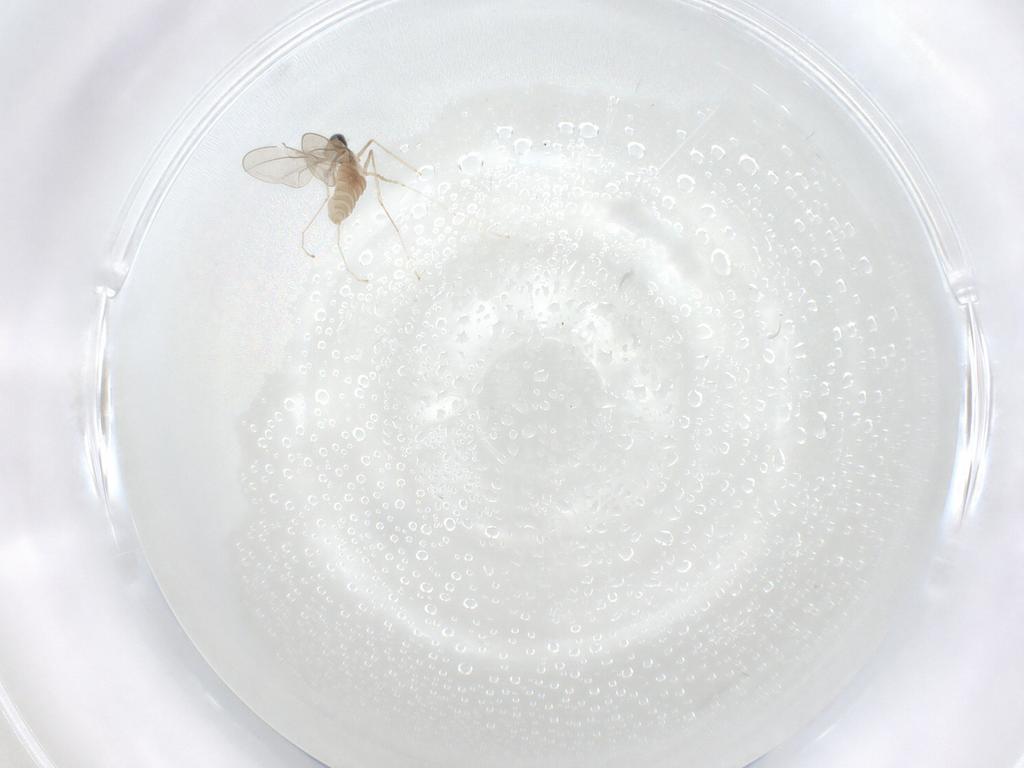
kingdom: Animalia
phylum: Arthropoda
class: Insecta
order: Diptera
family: Cecidomyiidae
